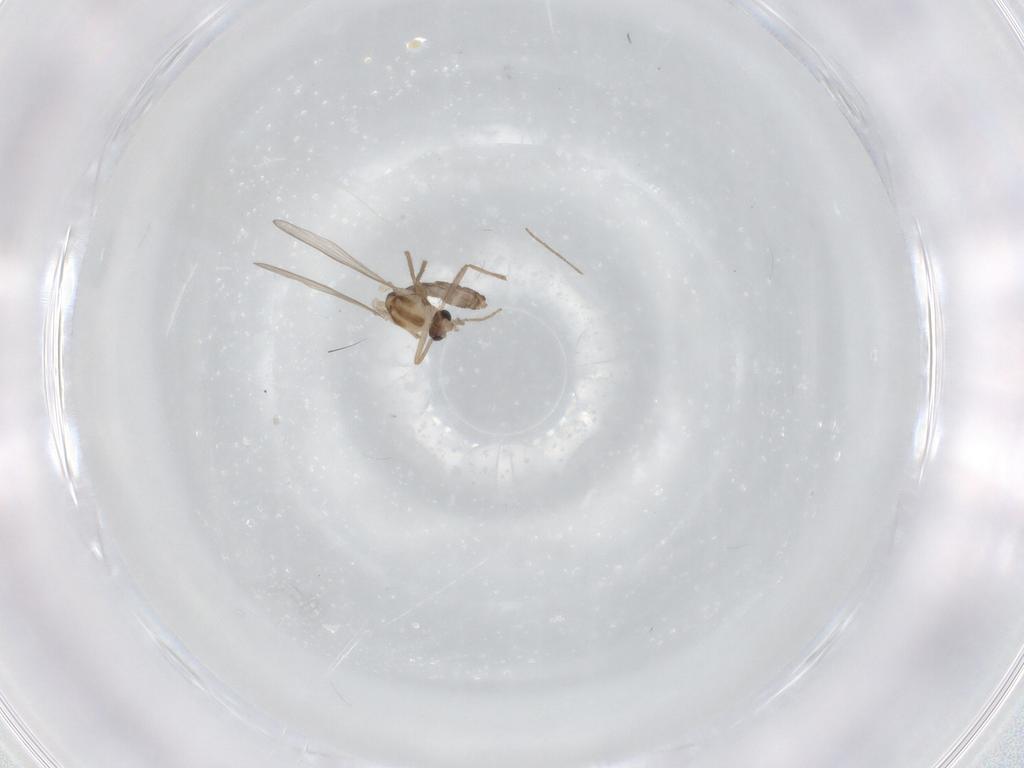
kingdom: Animalia
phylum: Arthropoda
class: Insecta
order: Diptera
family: Chironomidae
